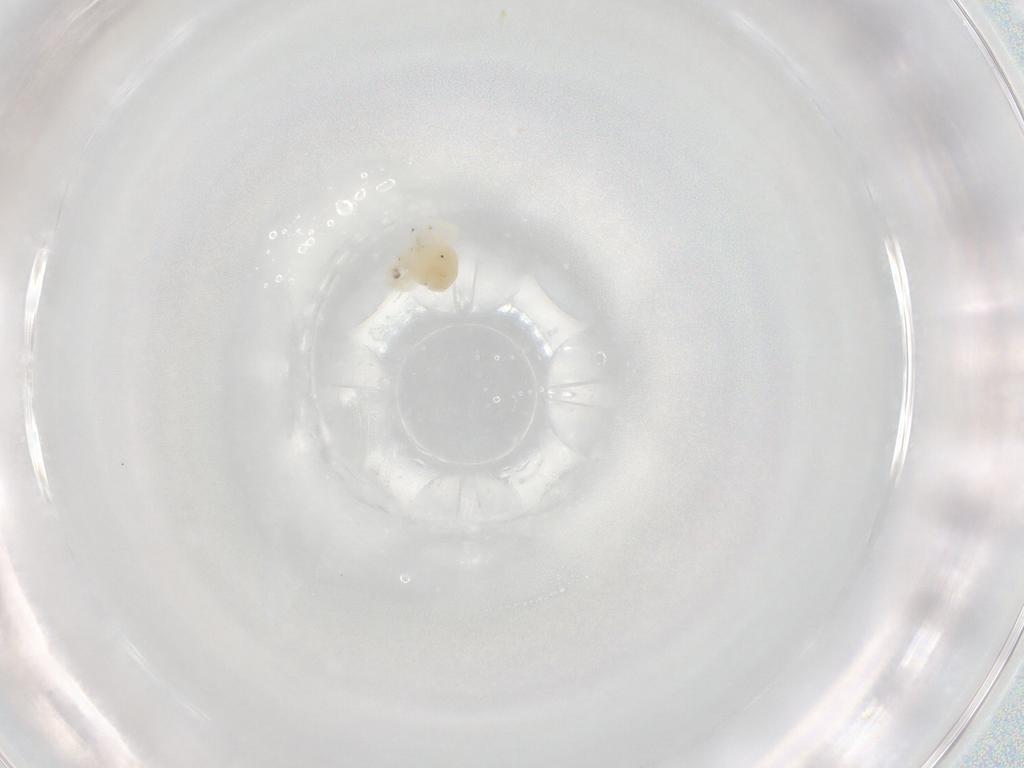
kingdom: Animalia
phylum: Arthropoda
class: Arachnida
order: Trombidiformes
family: Anystidae
